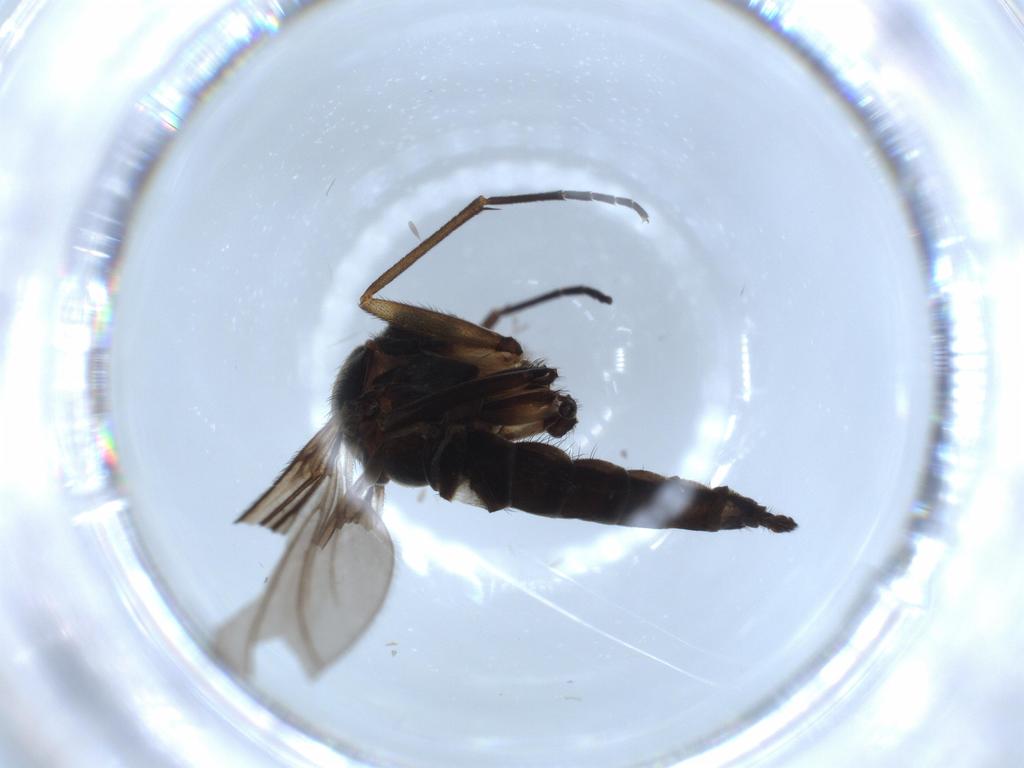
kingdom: Animalia
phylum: Arthropoda
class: Insecta
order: Diptera
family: Sciaridae
